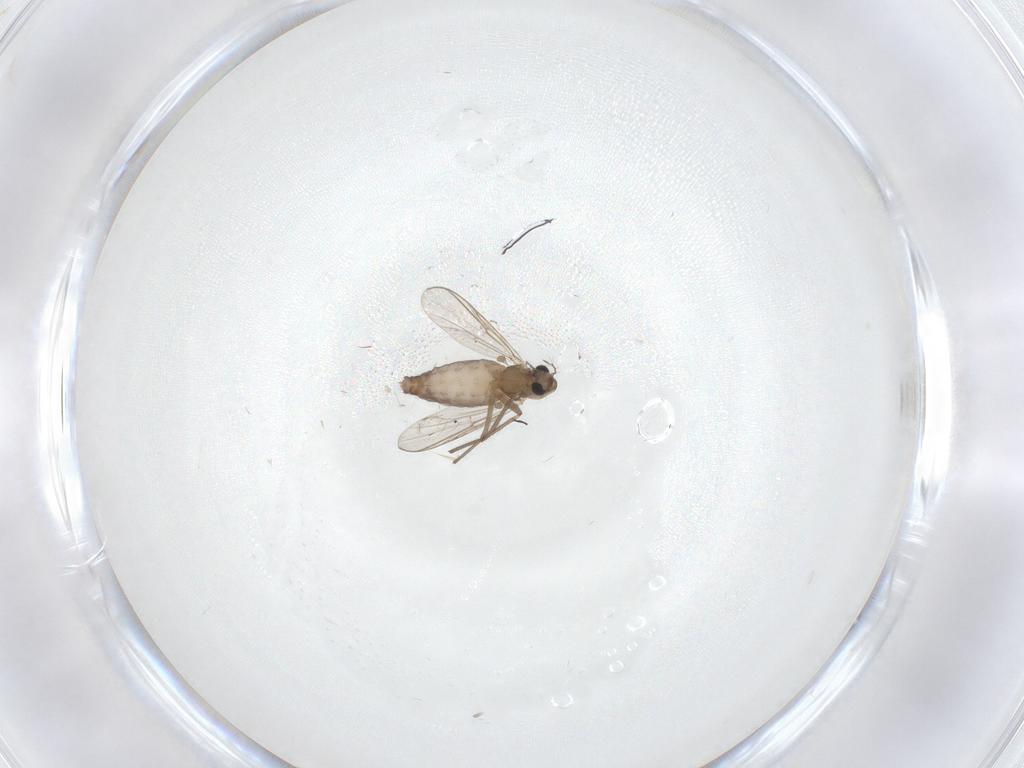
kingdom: Animalia
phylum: Arthropoda
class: Insecta
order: Diptera
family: Chironomidae
